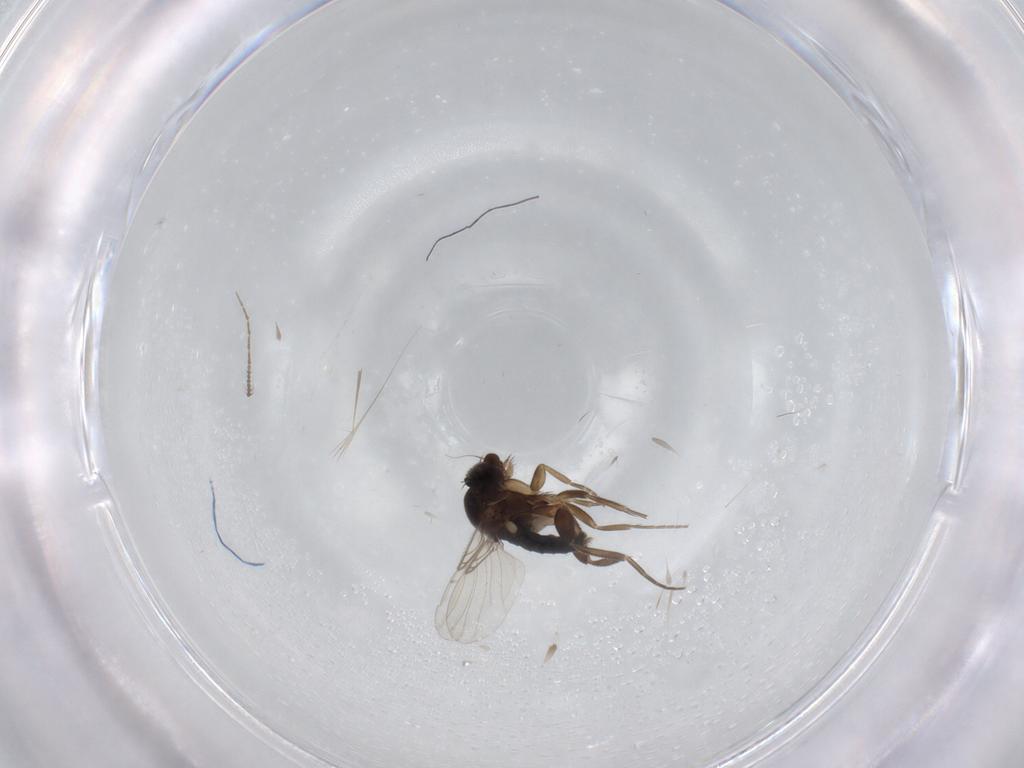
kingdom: Animalia
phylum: Arthropoda
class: Insecta
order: Diptera
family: Phoridae
